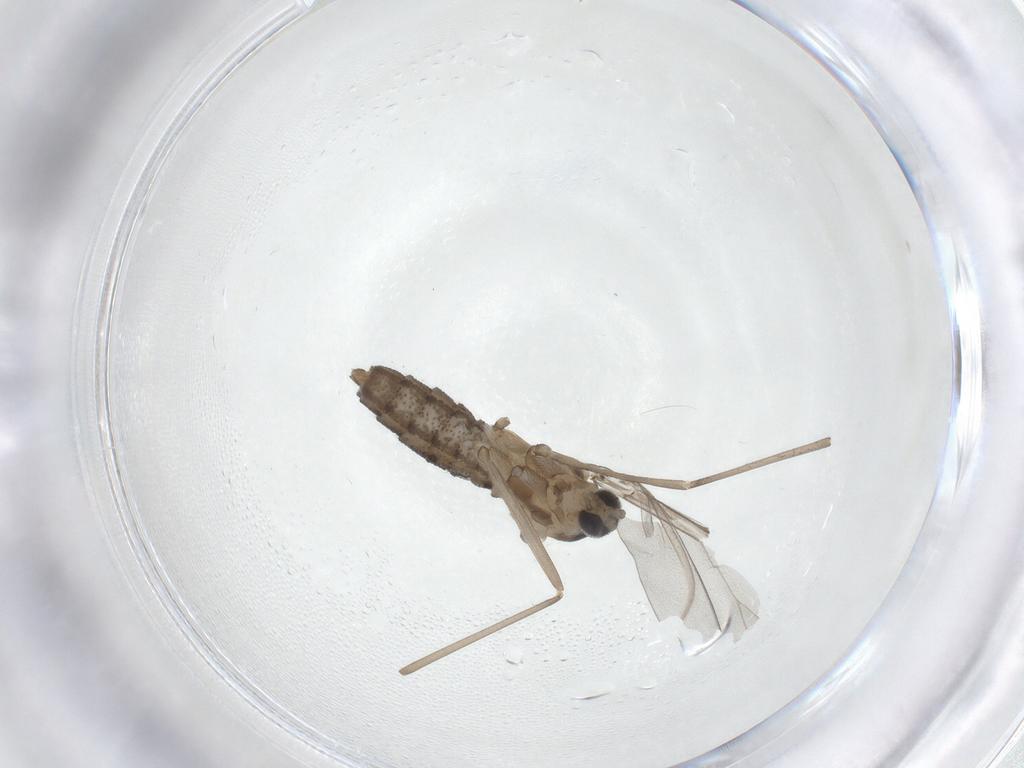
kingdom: Animalia
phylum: Arthropoda
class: Insecta
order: Diptera
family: Cecidomyiidae
